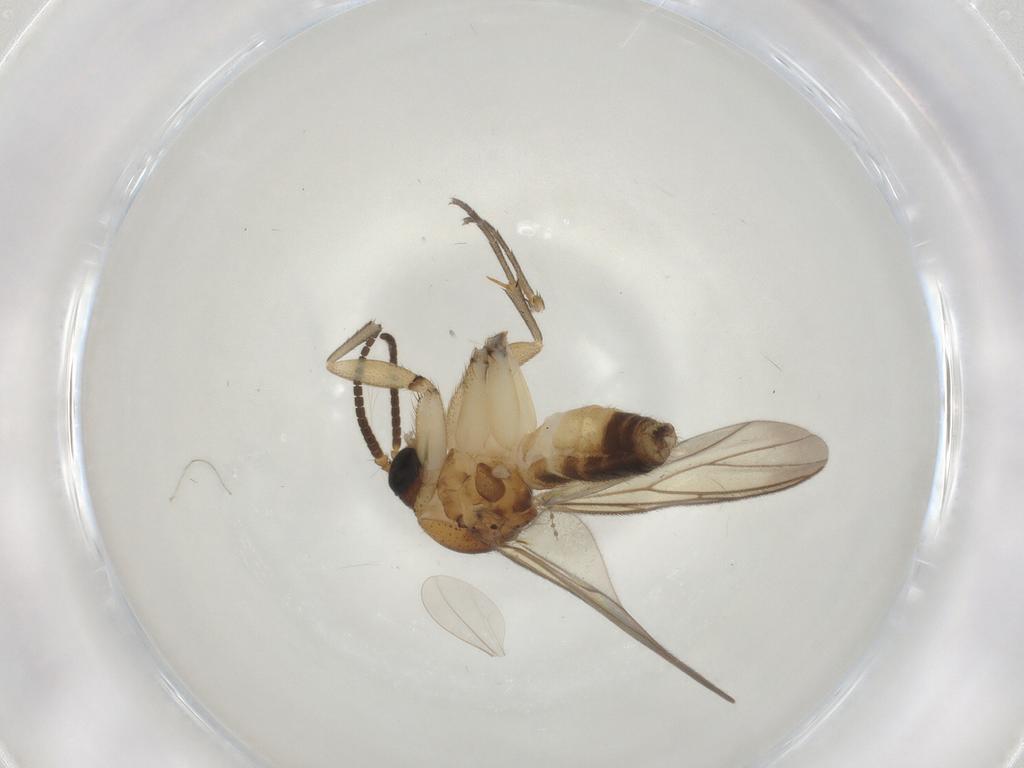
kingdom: Animalia
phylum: Arthropoda
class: Insecta
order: Diptera
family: Mycetophilidae
